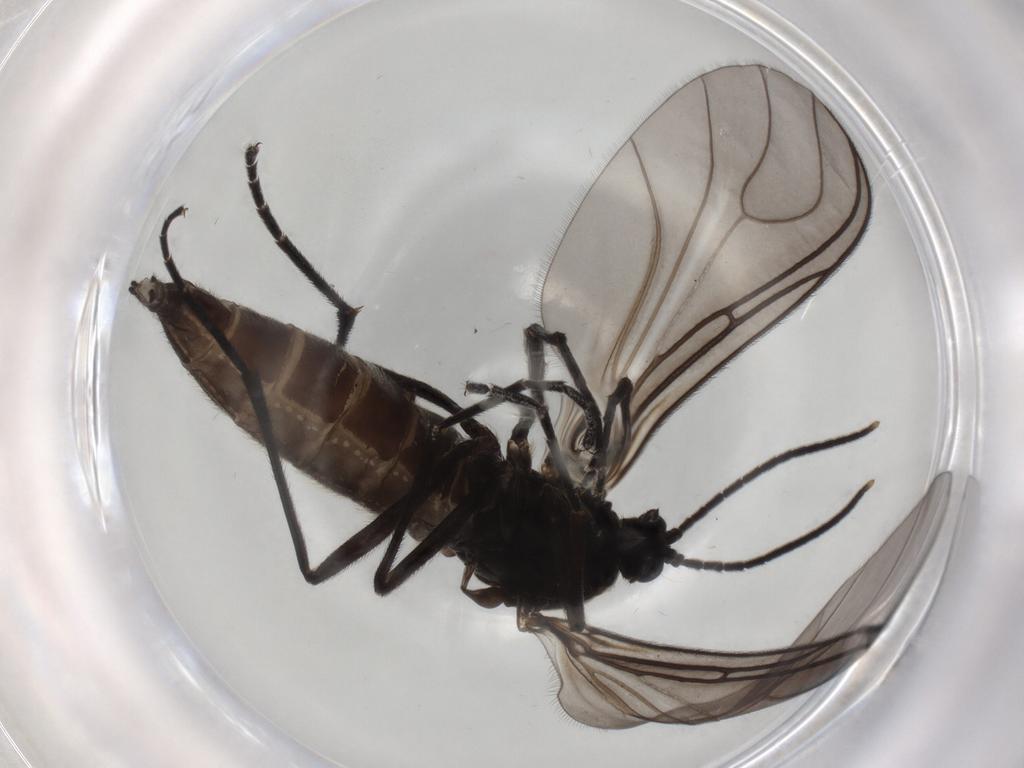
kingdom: Animalia
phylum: Arthropoda
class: Insecta
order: Diptera
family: Sciaridae
